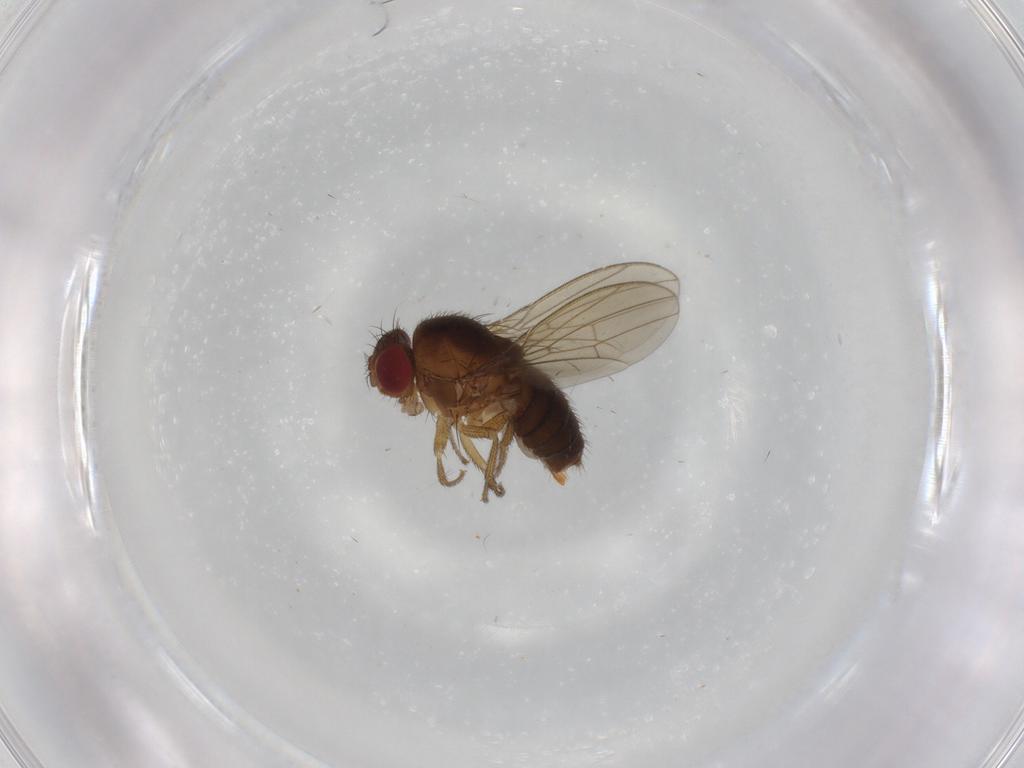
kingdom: Animalia
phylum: Arthropoda
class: Insecta
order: Diptera
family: Drosophilidae
